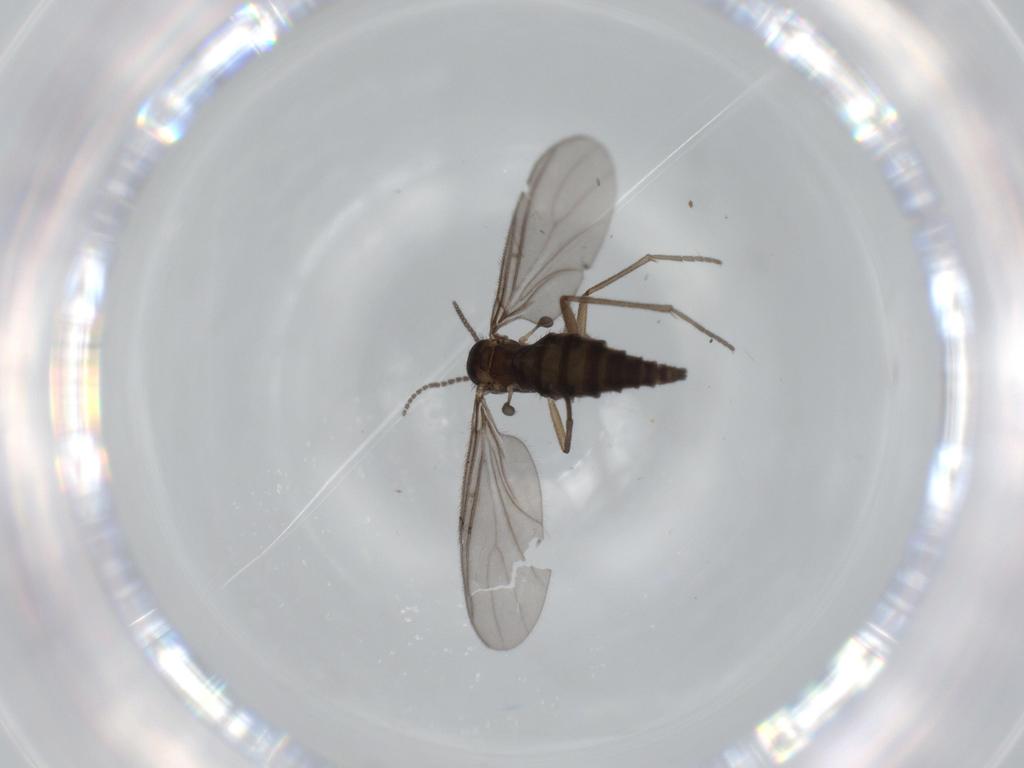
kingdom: Animalia
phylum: Arthropoda
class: Insecta
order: Diptera
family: Sciaridae
